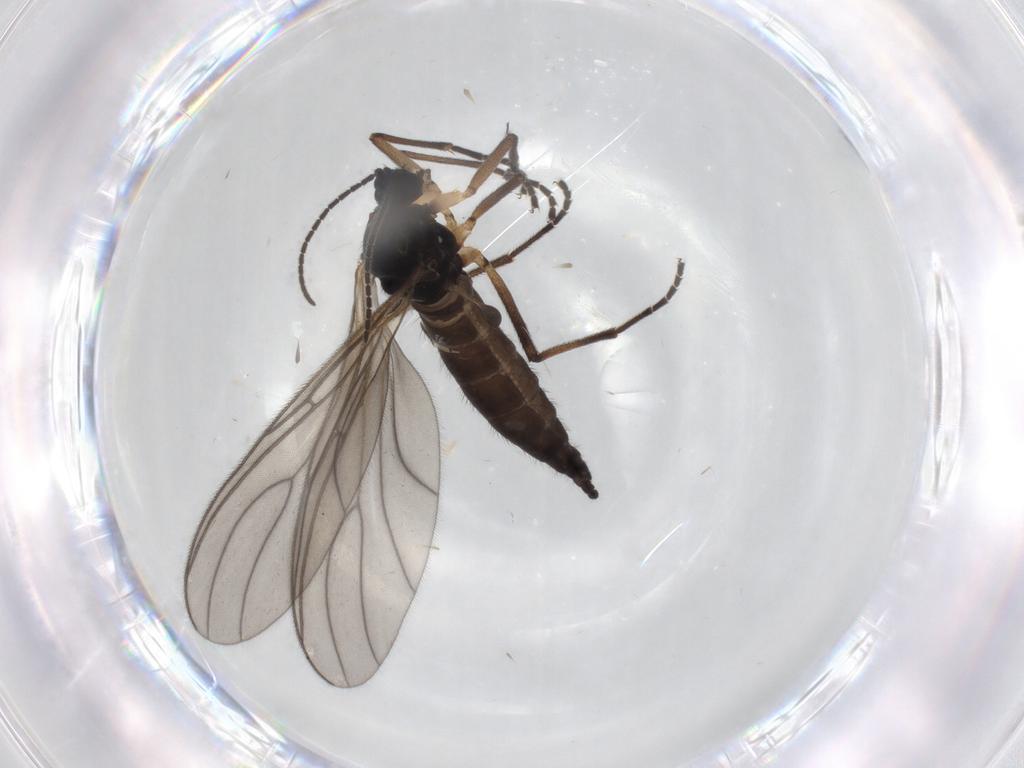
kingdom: Animalia
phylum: Arthropoda
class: Insecta
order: Diptera
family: Sciaridae
